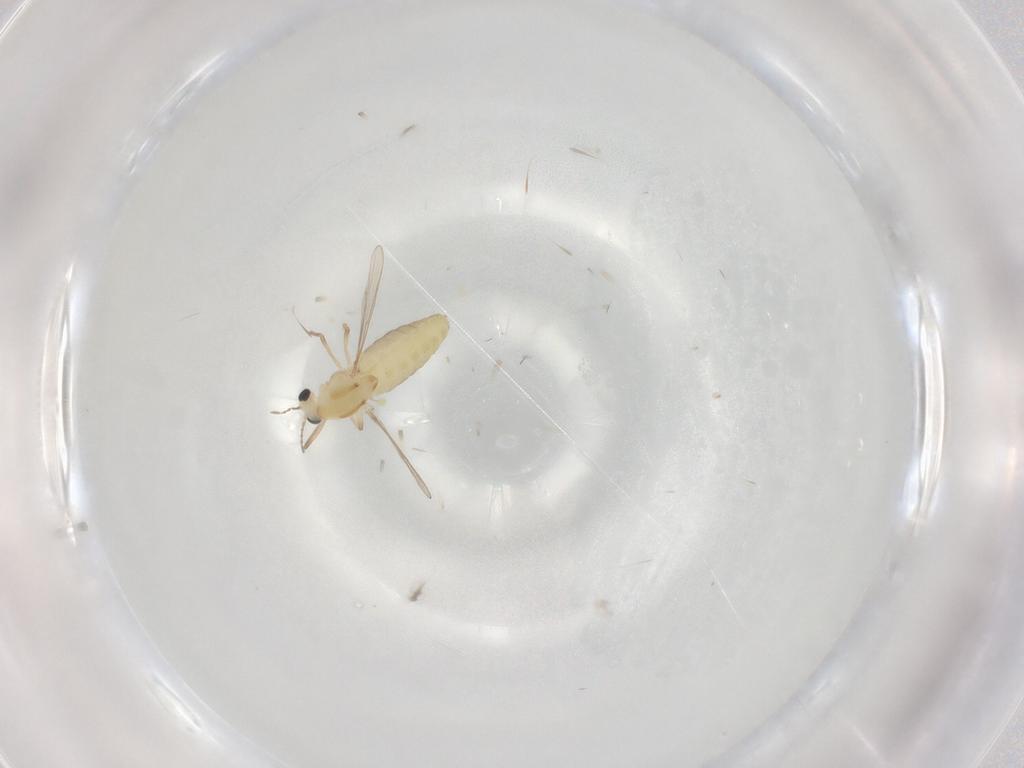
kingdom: Animalia
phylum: Arthropoda
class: Insecta
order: Diptera
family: Chironomidae
